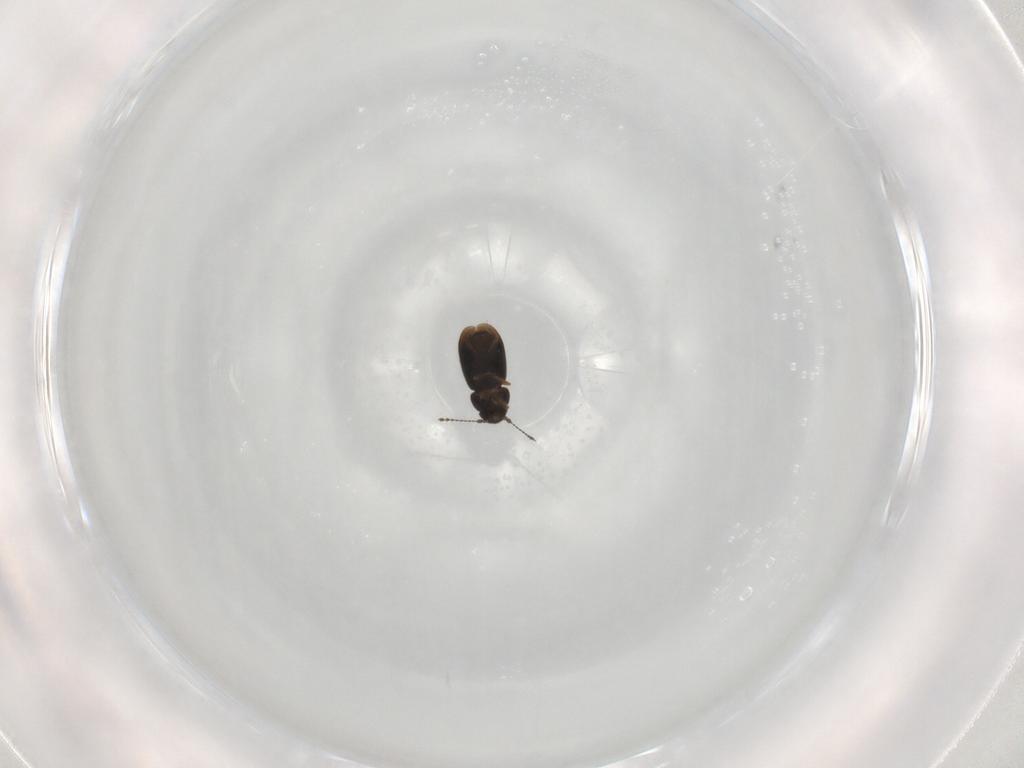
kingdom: Animalia
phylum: Arthropoda
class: Insecta
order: Coleoptera
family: Ptiliidae
